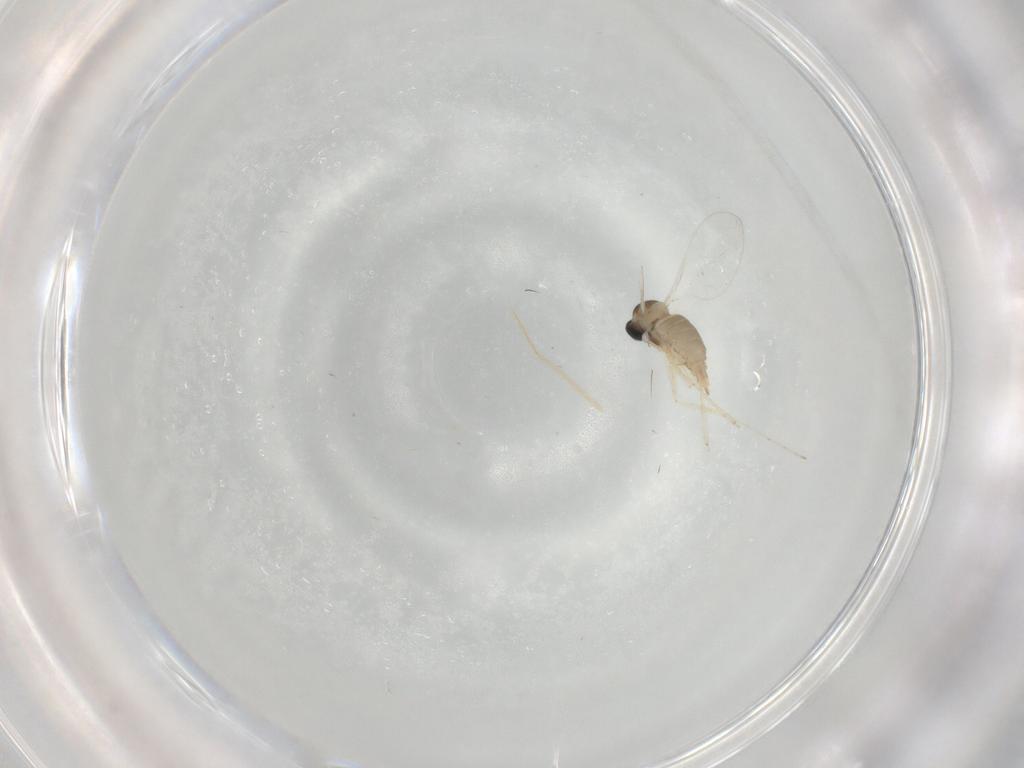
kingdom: Animalia
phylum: Arthropoda
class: Insecta
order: Diptera
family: Cecidomyiidae
